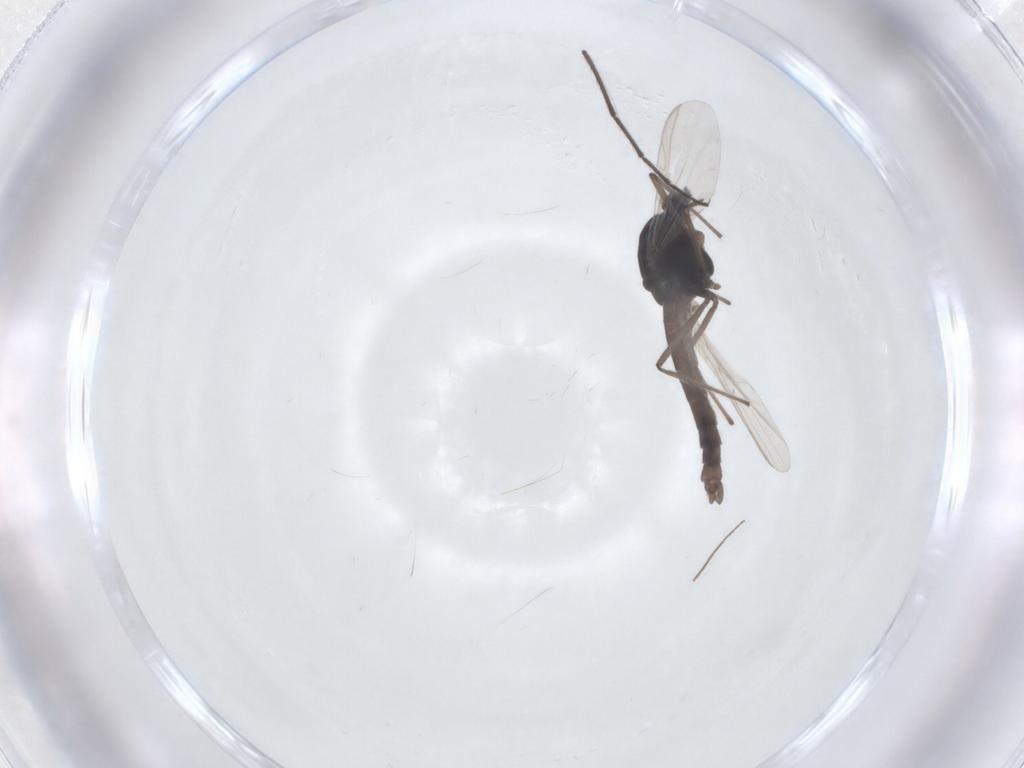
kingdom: Animalia
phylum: Arthropoda
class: Insecta
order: Diptera
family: Chironomidae
